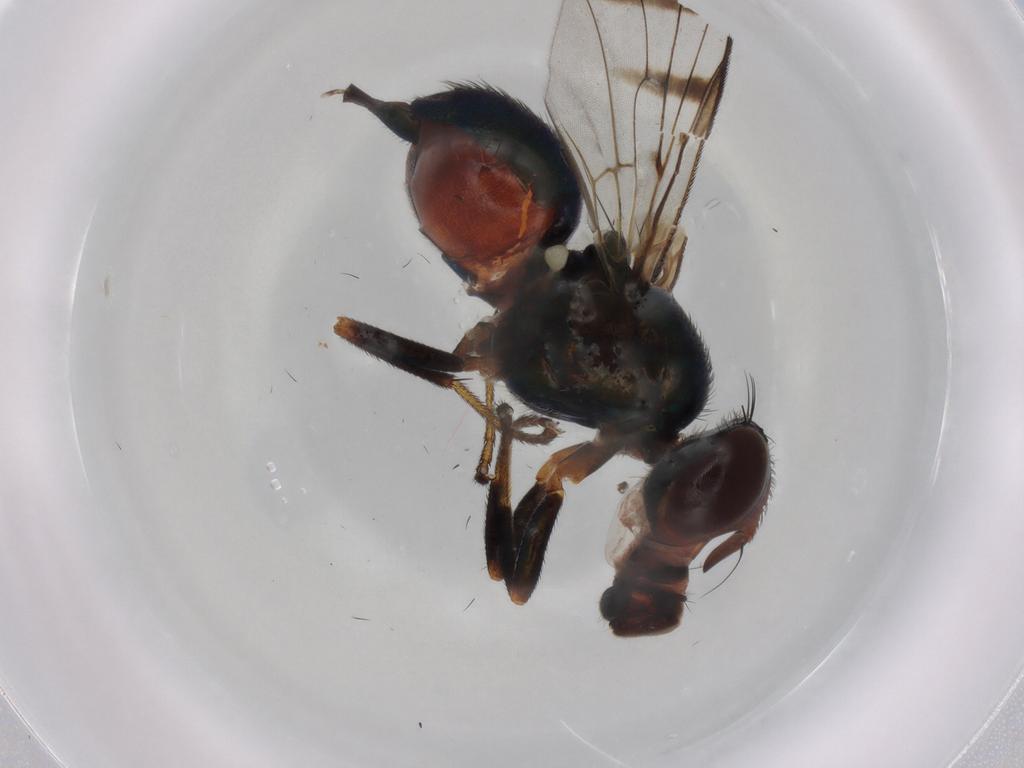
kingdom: Animalia
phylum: Arthropoda
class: Insecta
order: Diptera
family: Platystomatidae
